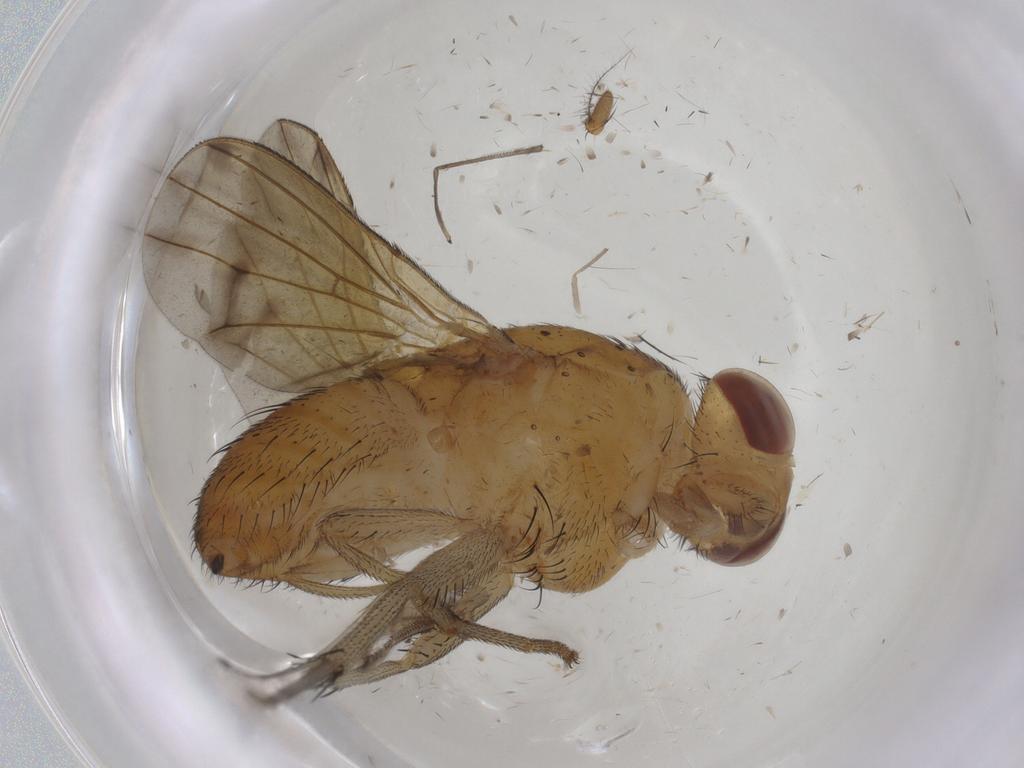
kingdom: Animalia
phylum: Arthropoda
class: Insecta
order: Diptera
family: Cecidomyiidae
